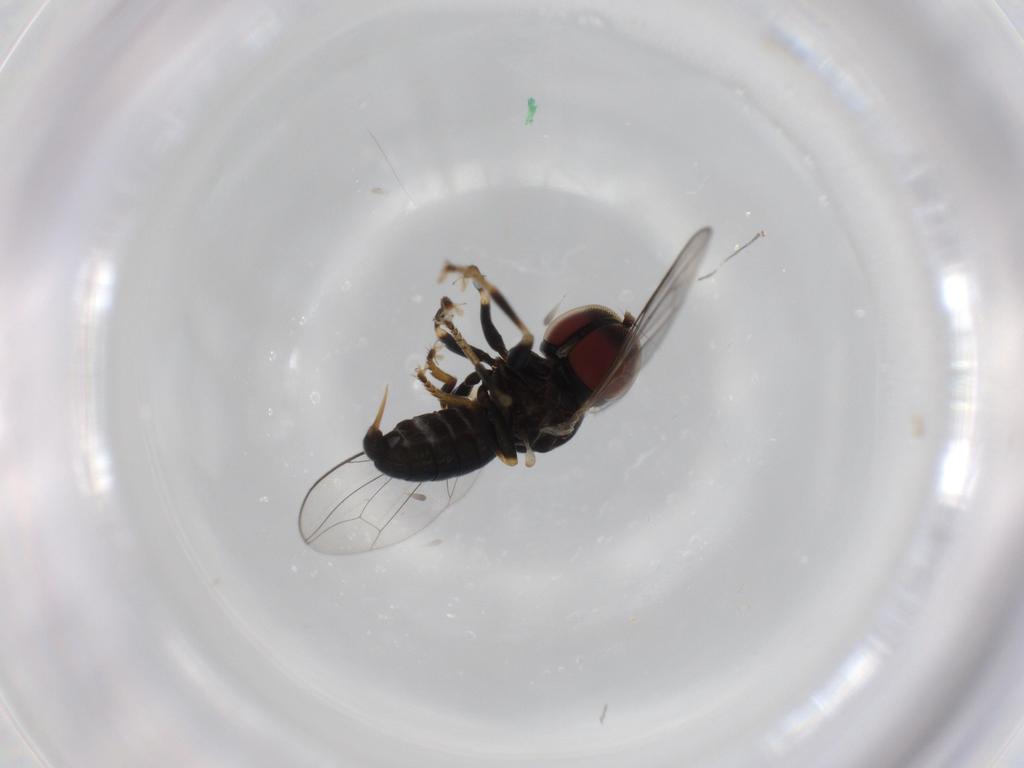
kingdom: Animalia
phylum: Arthropoda
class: Insecta
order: Diptera
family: Pipunculidae
